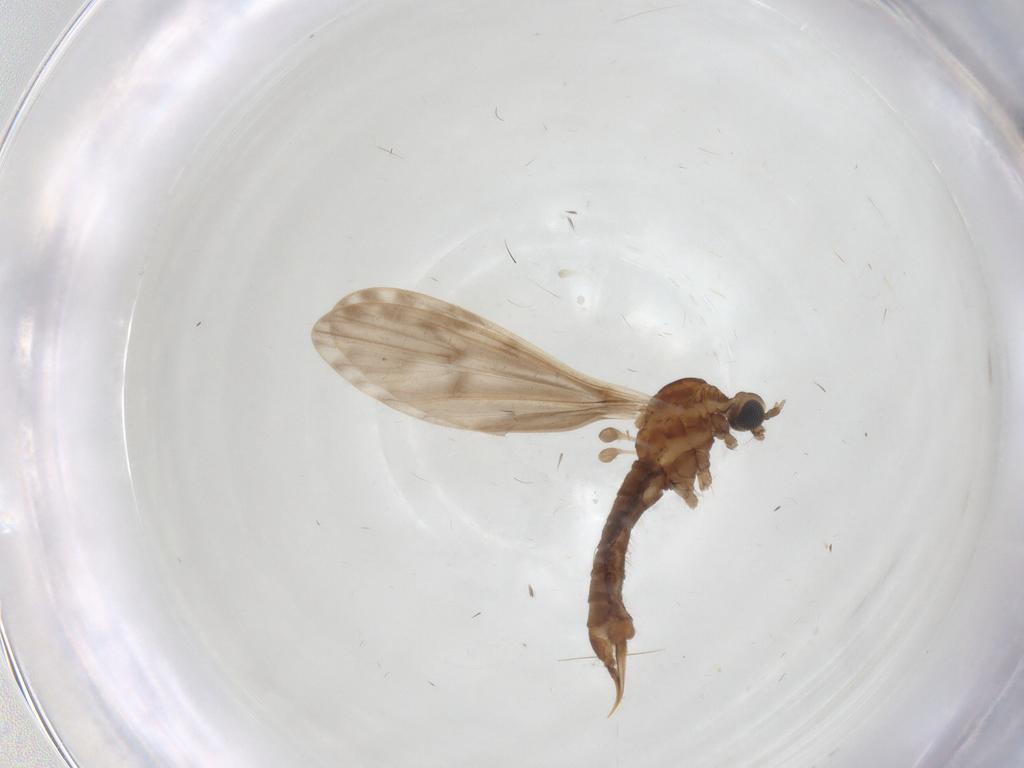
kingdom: Animalia
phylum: Arthropoda
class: Insecta
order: Diptera
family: Limoniidae
